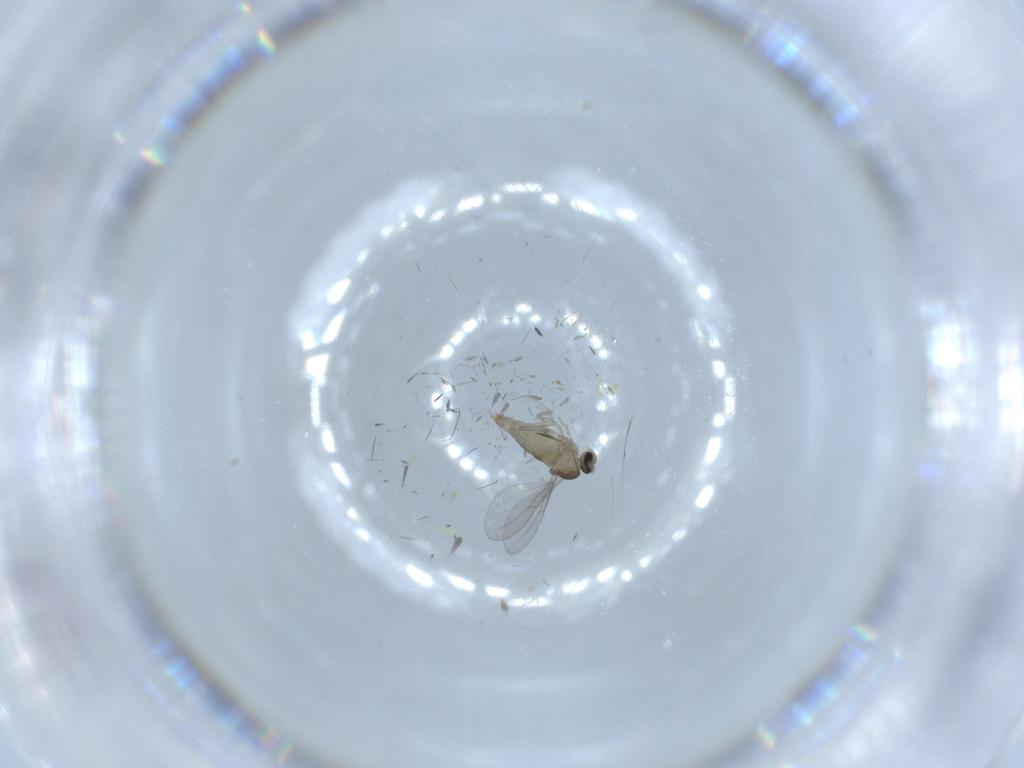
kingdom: Animalia
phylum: Arthropoda
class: Insecta
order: Diptera
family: Cecidomyiidae
